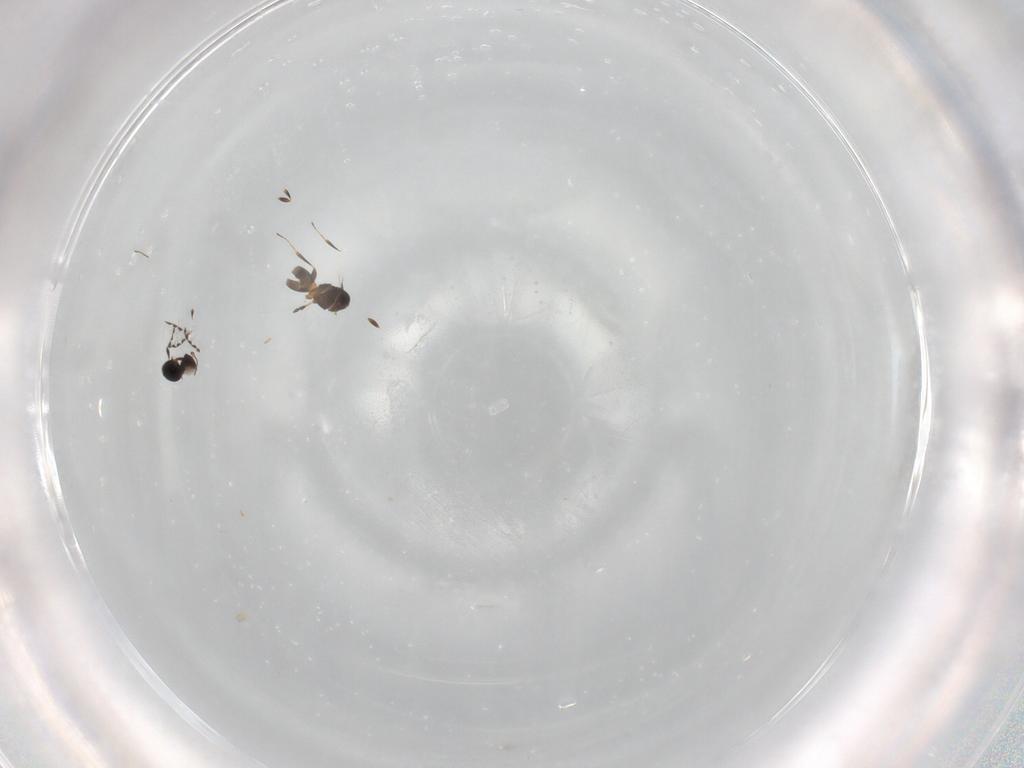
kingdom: Animalia
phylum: Arthropoda
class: Insecta
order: Hymenoptera
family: Platygastridae
